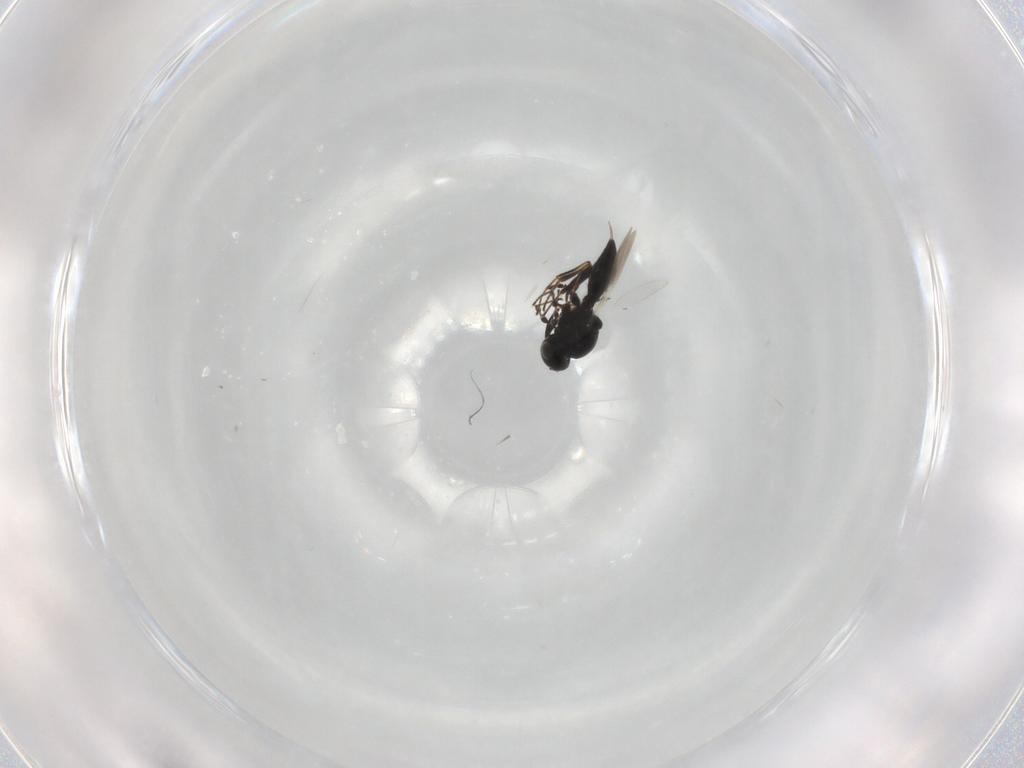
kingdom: Animalia
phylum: Arthropoda
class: Insecta
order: Hymenoptera
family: Platygastridae
